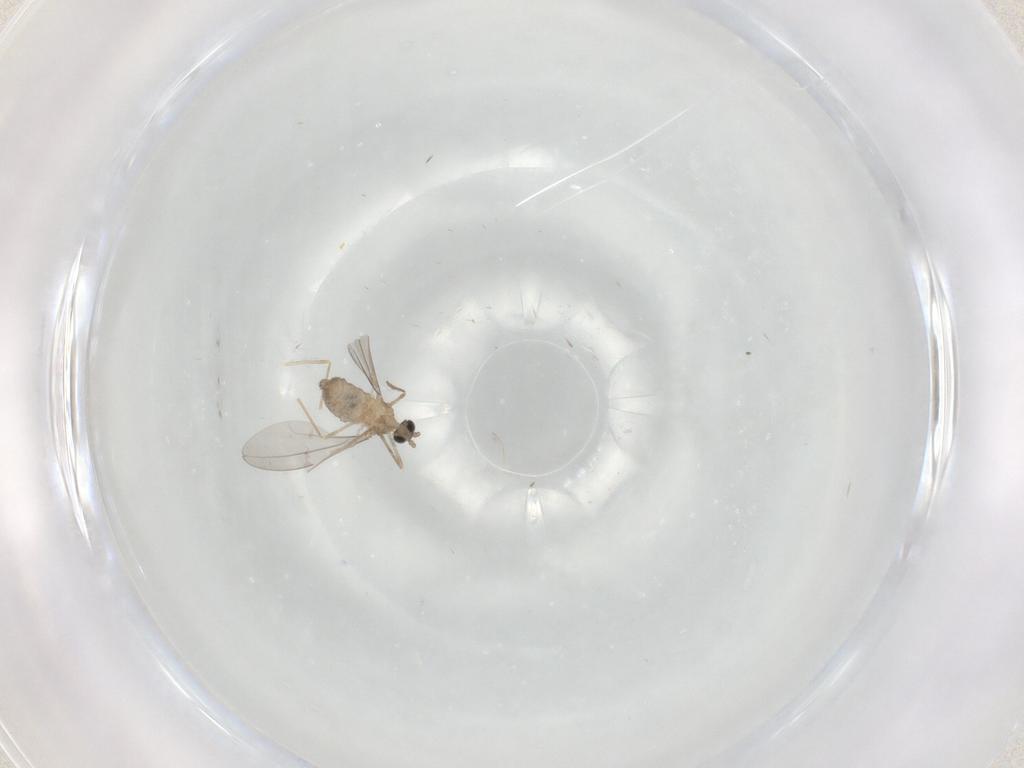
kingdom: Animalia
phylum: Arthropoda
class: Insecta
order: Diptera
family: Cecidomyiidae
